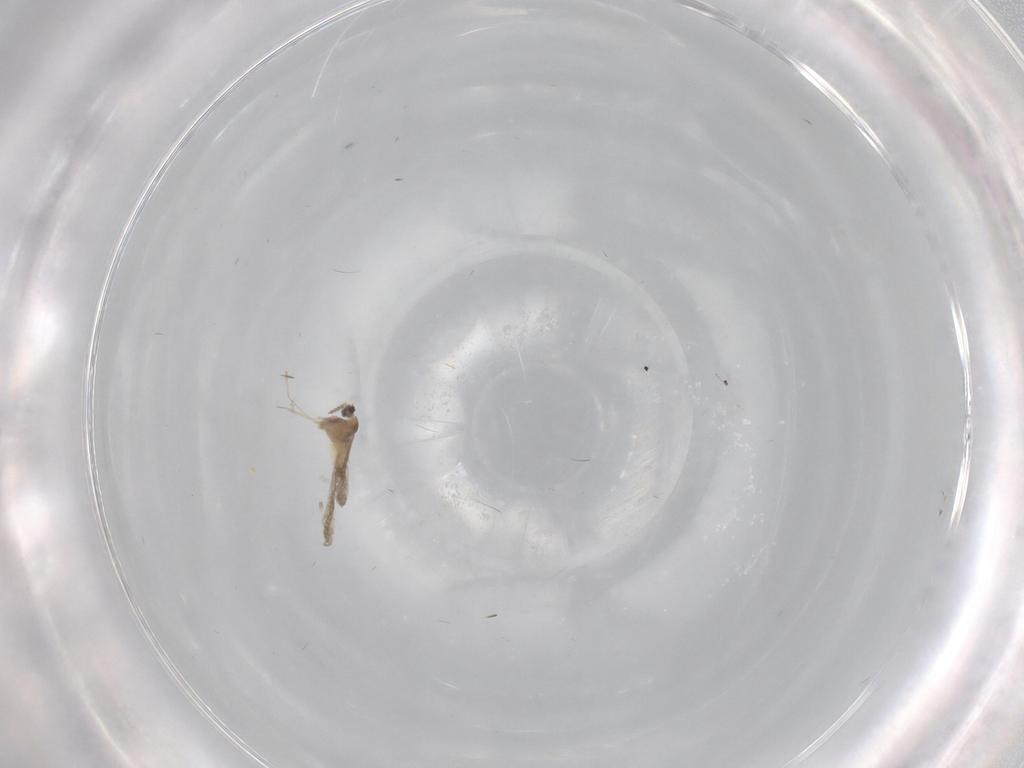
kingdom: Animalia
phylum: Arthropoda
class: Insecta
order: Diptera
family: Cecidomyiidae
